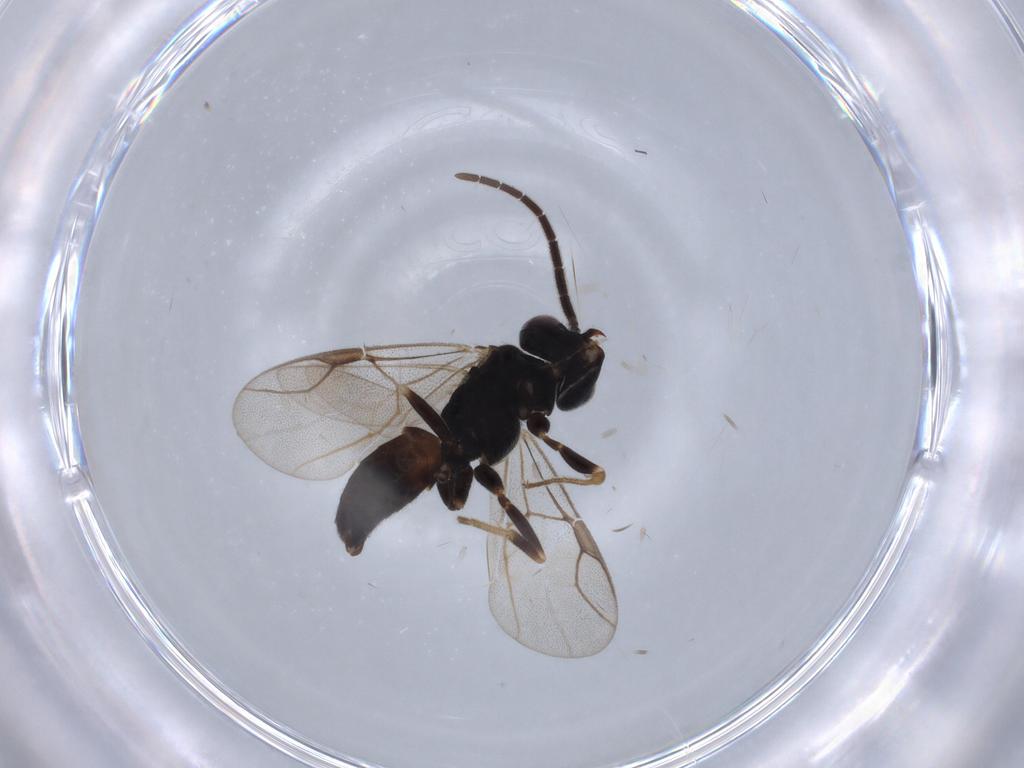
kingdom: Animalia
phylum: Arthropoda
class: Insecta
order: Hymenoptera
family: Dryinidae
